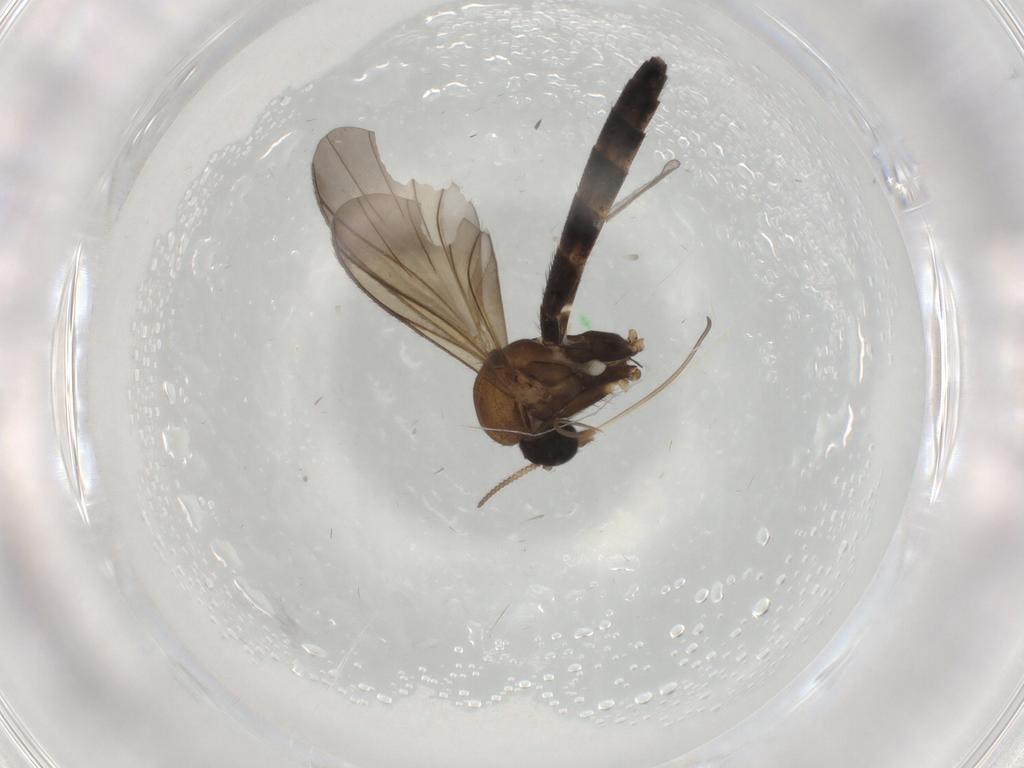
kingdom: Animalia
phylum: Arthropoda
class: Insecta
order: Diptera
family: Keroplatidae
